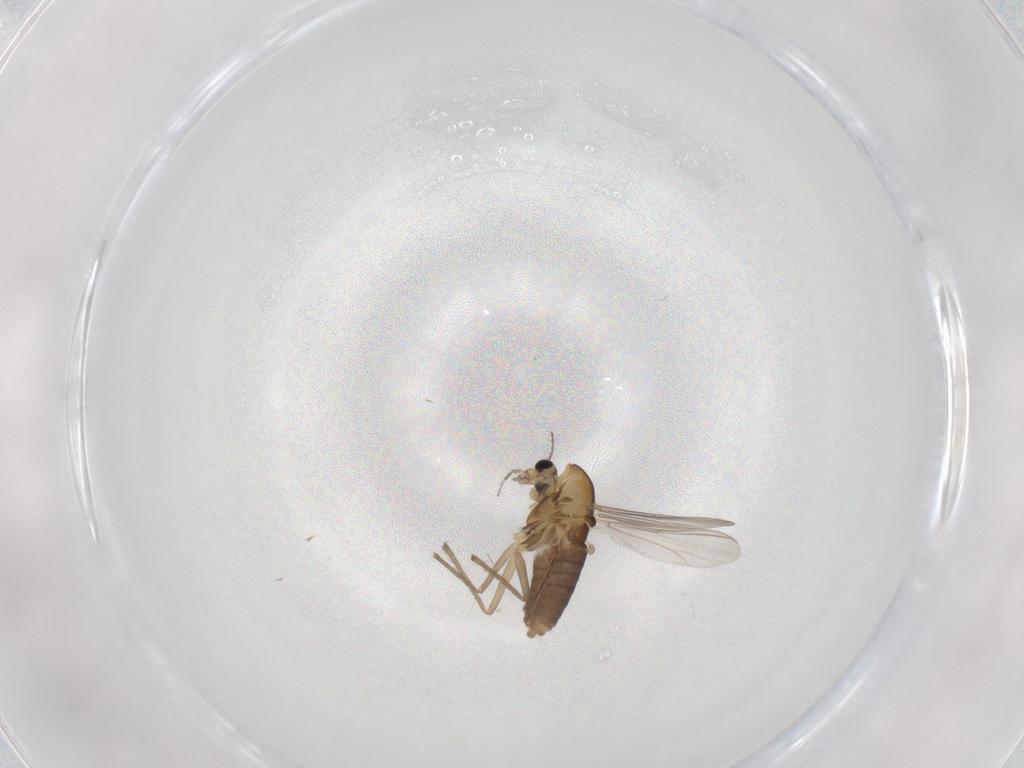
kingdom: Animalia
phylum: Arthropoda
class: Insecta
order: Diptera
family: Chironomidae
